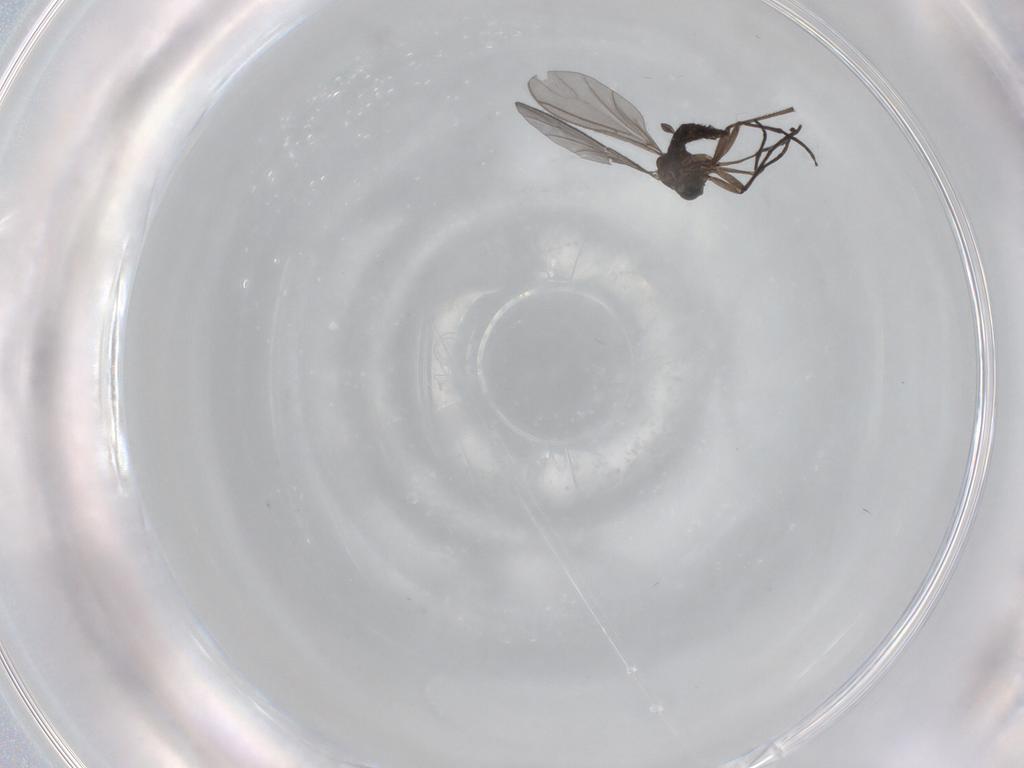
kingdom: Animalia
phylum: Arthropoda
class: Insecta
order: Diptera
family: Sciaridae
